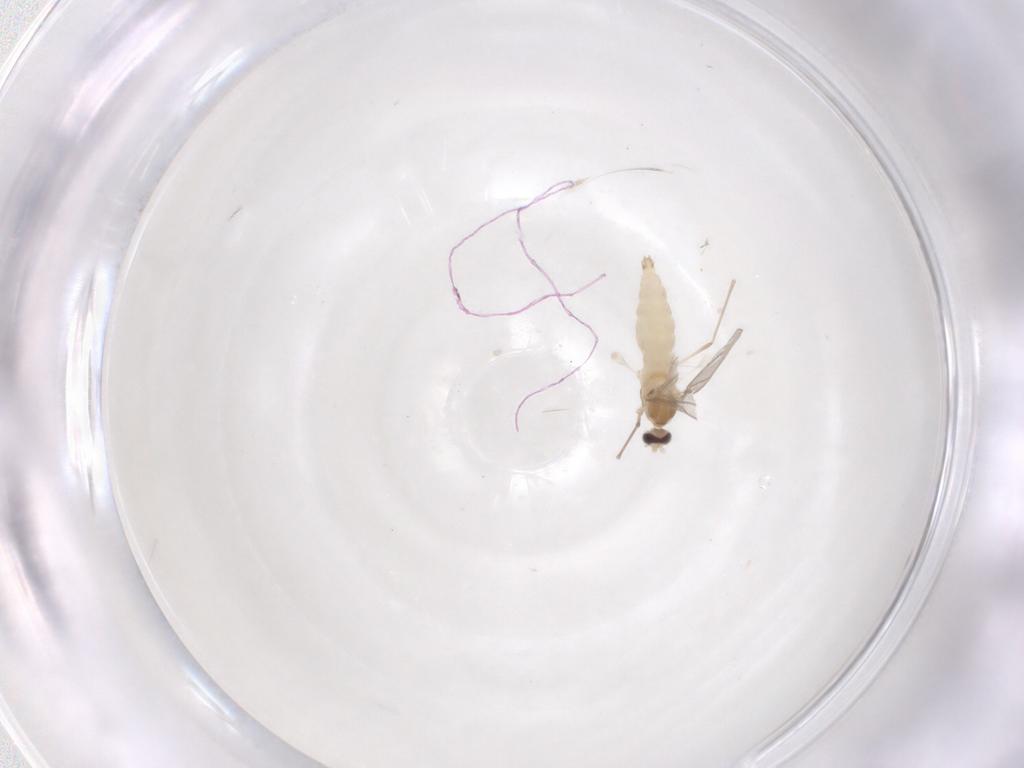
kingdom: Animalia
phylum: Arthropoda
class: Insecta
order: Diptera
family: Cecidomyiidae
